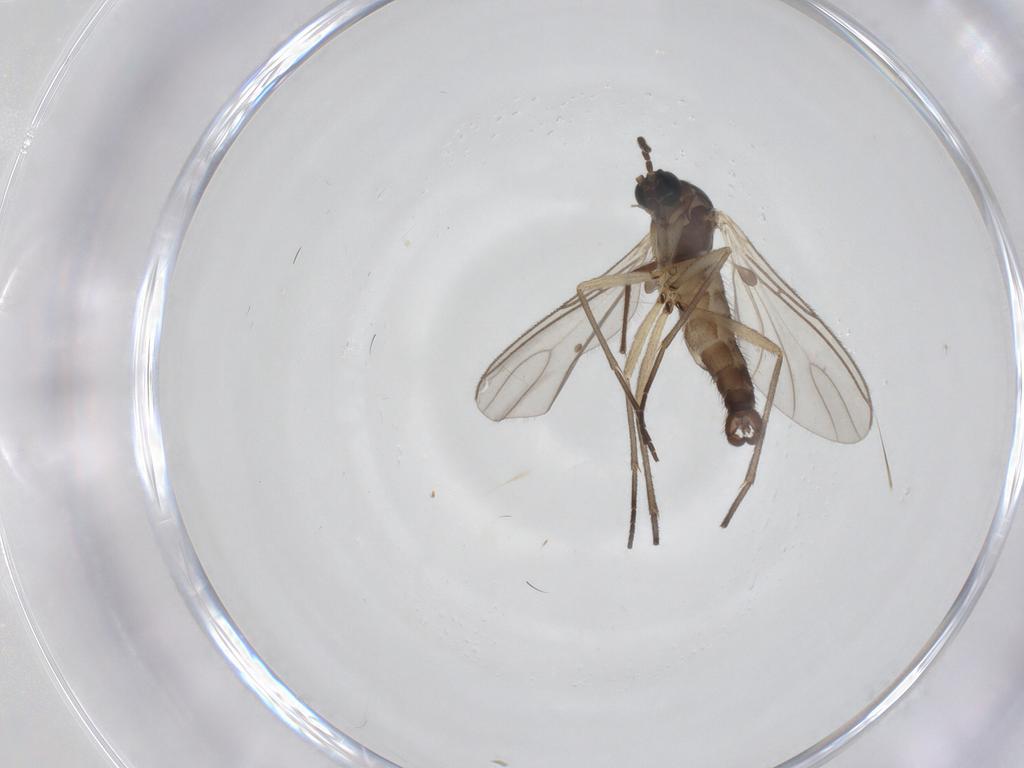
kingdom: Animalia
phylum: Arthropoda
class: Insecta
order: Diptera
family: Sciaridae
